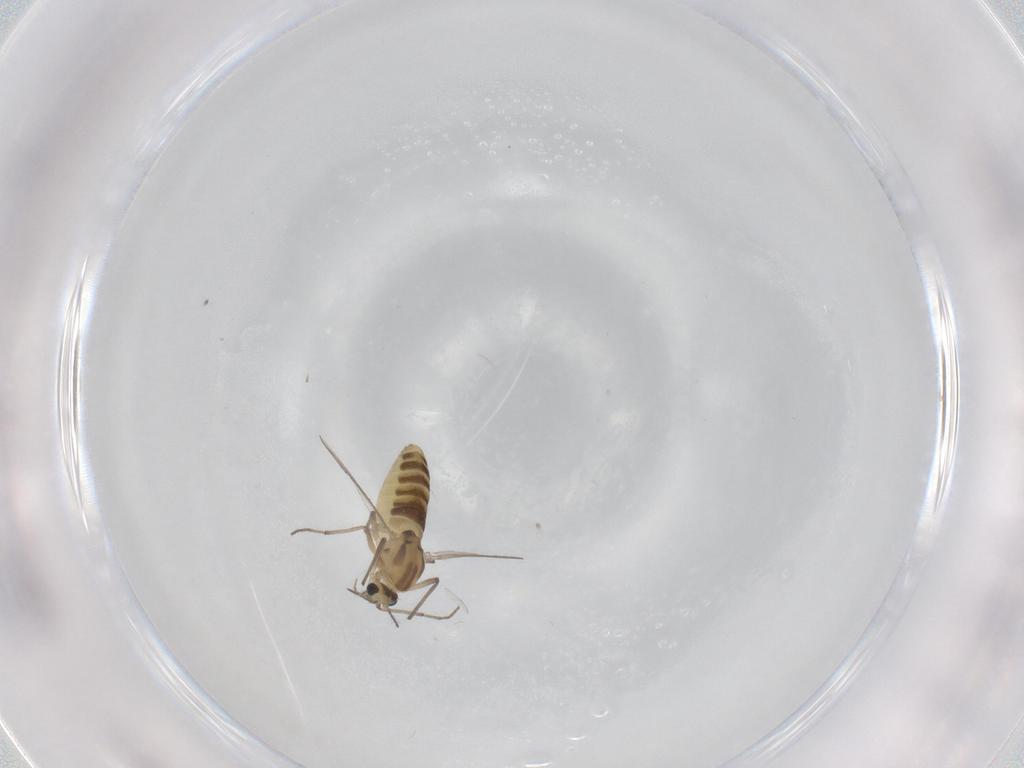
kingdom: Animalia
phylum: Arthropoda
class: Insecta
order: Diptera
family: Chironomidae
